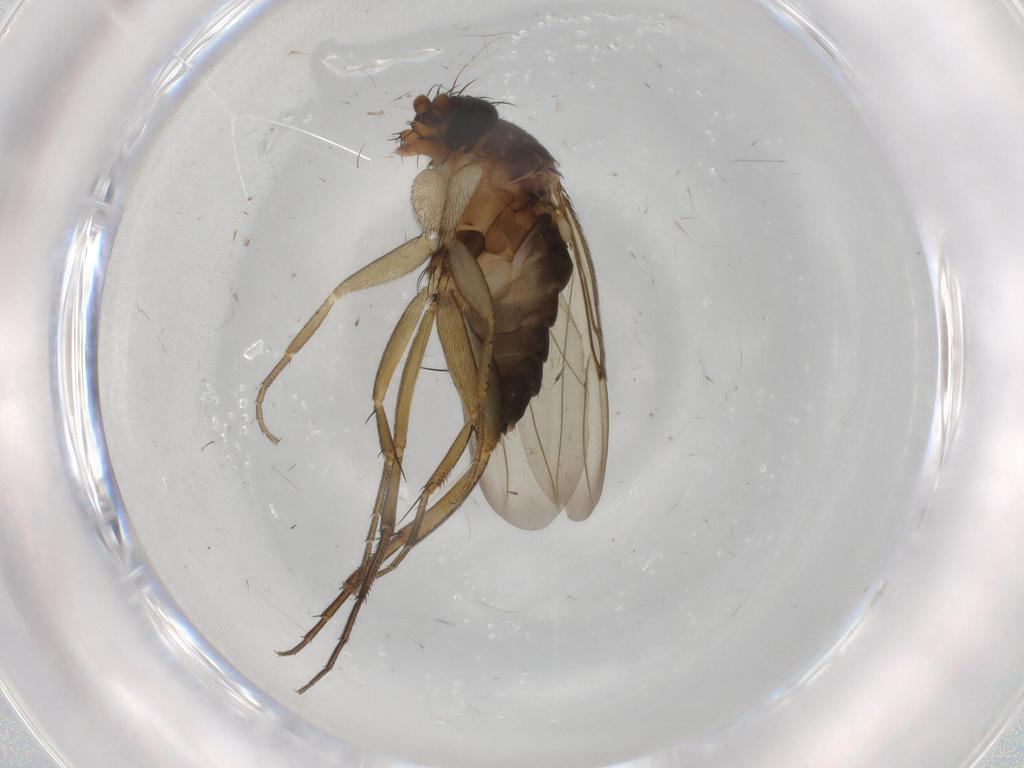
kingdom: Animalia
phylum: Arthropoda
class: Insecta
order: Diptera
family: Phoridae
